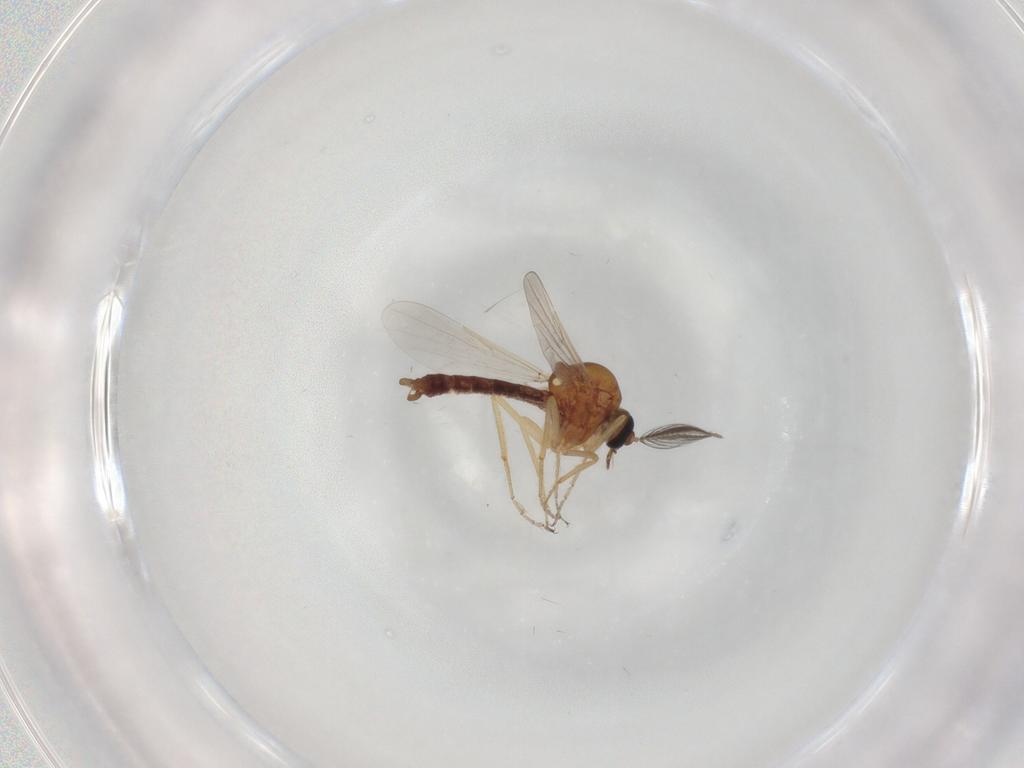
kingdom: Animalia
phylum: Arthropoda
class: Insecta
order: Diptera
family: Ceratopogonidae
